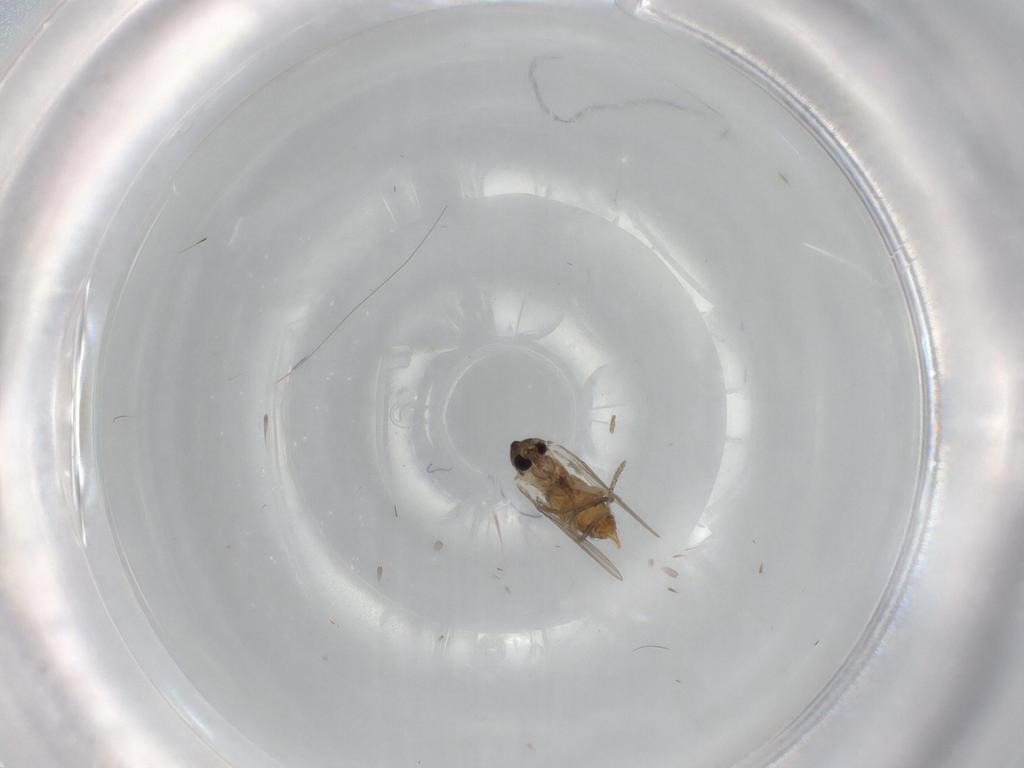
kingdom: Animalia
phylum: Arthropoda
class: Insecta
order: Diptera
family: Psychodidae
